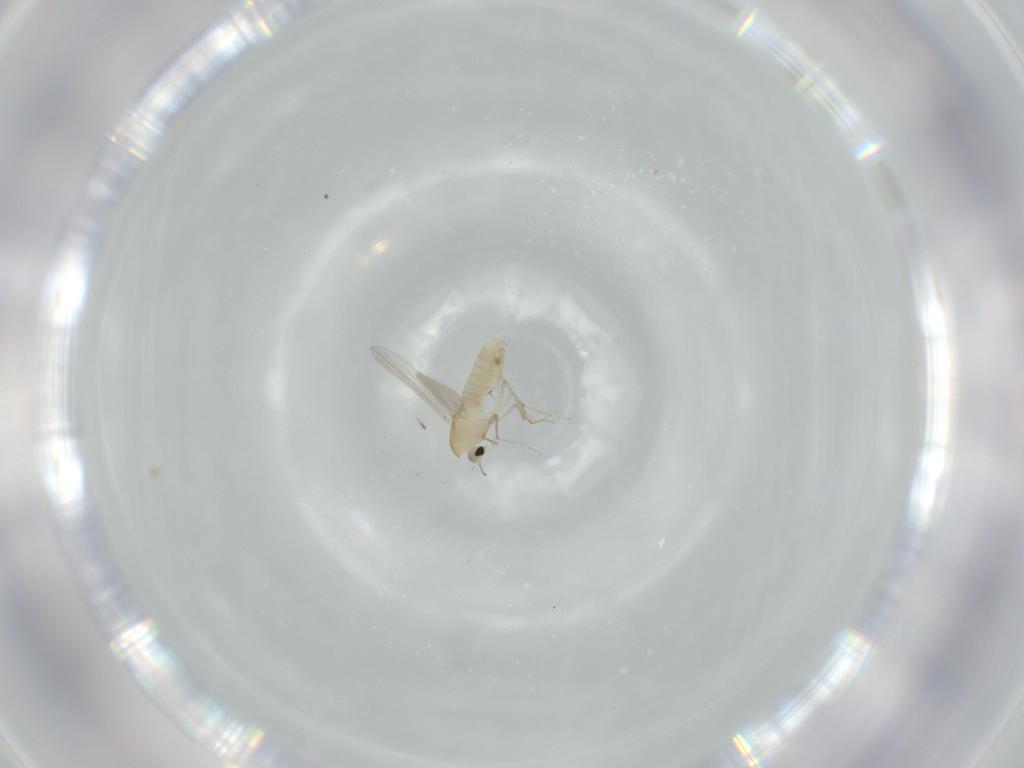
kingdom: Animalia
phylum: Arthropoda
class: Insecta
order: Diptera
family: Chironomidae
